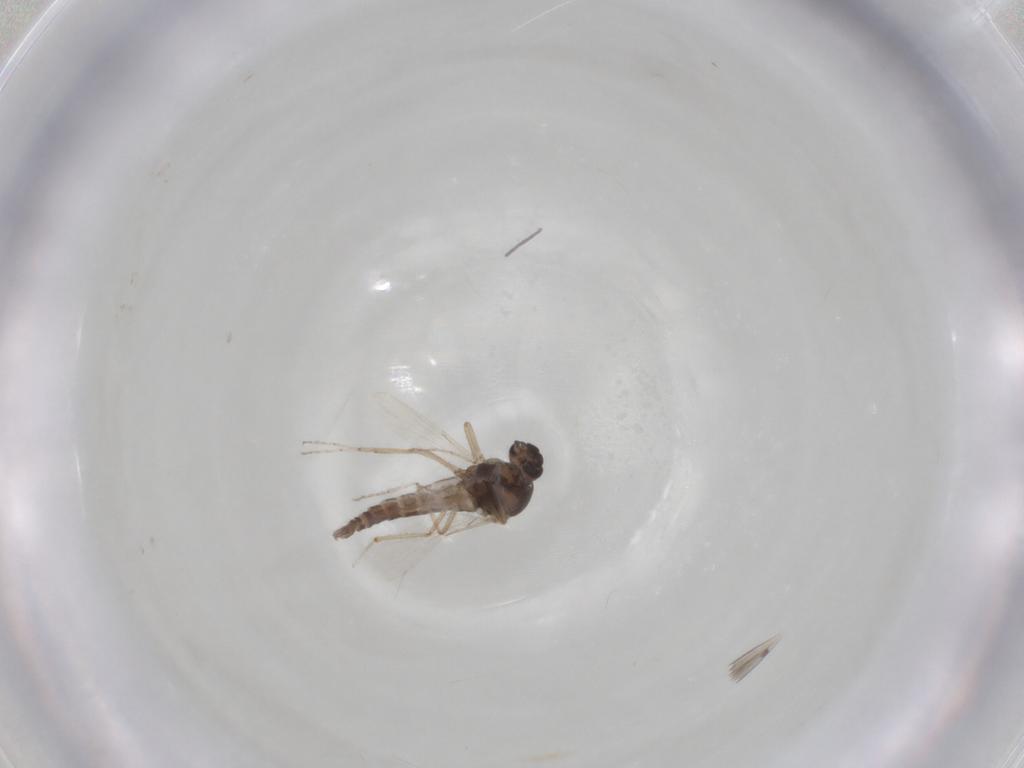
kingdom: Animalia
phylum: Arthropoda
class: Insecta
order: Diptera
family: Ceratopogonidae
